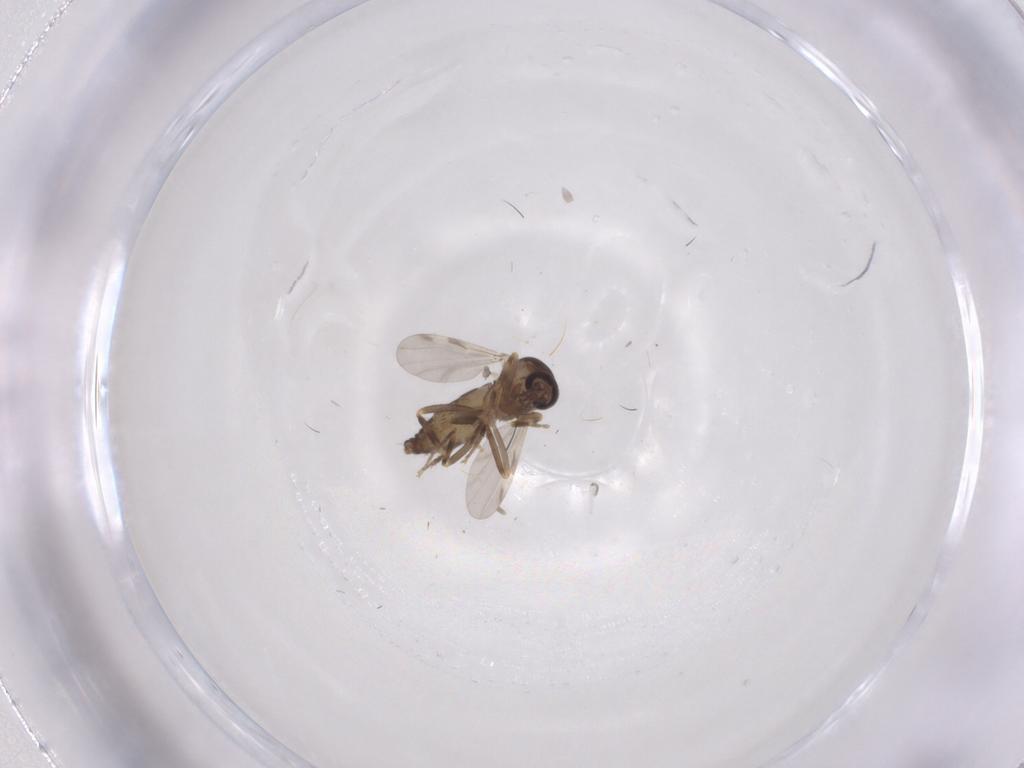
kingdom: Animalia
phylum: Arthropoda
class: Insecta
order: Diptera
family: Ceratopogonidae
